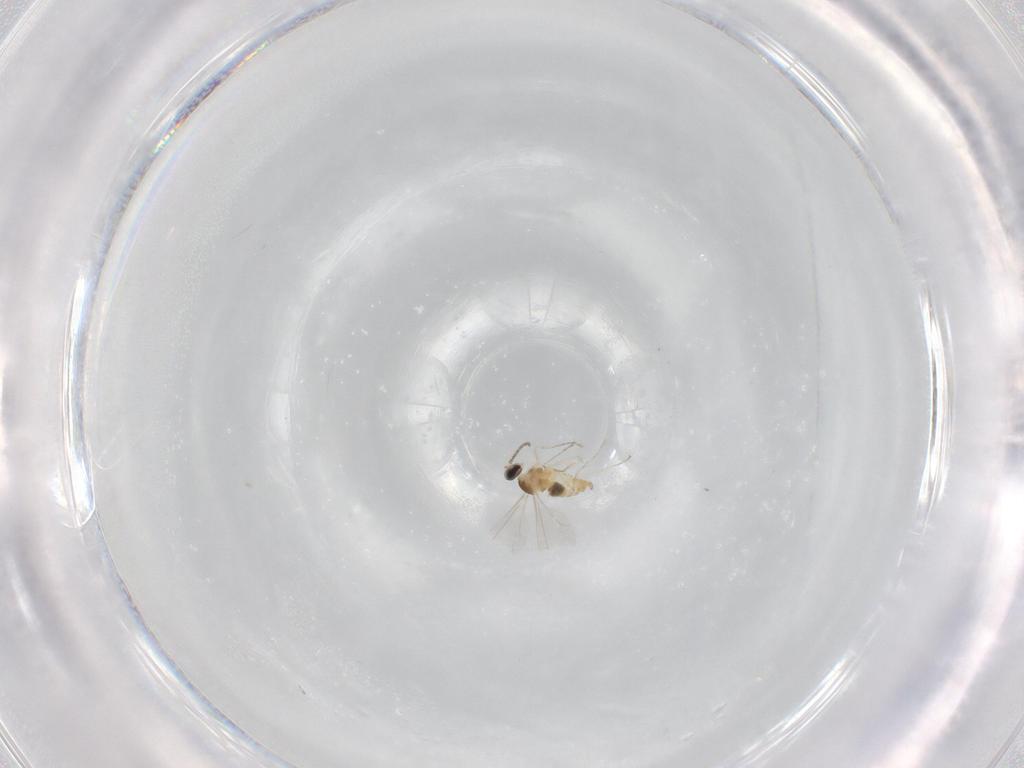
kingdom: Animalia
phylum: Arthropoda
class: Insecta
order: Diptera
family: Cecidomyiidae
